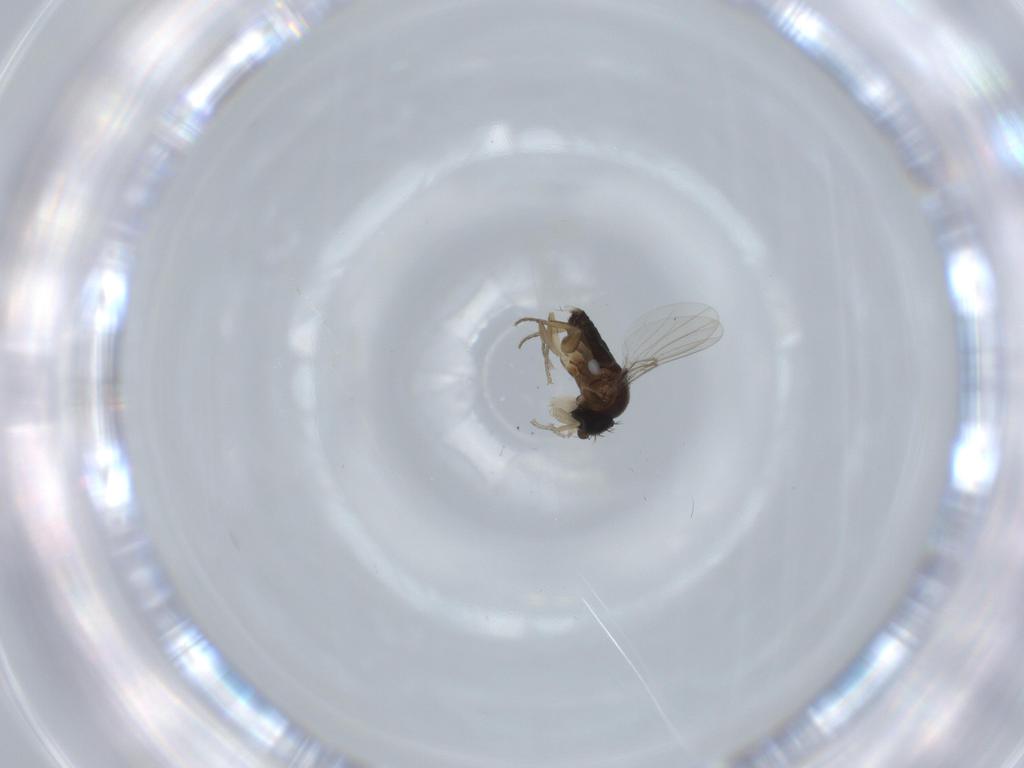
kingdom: Animalia
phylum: Arthropoda
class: Insecta
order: Diptera
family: Phoridae
